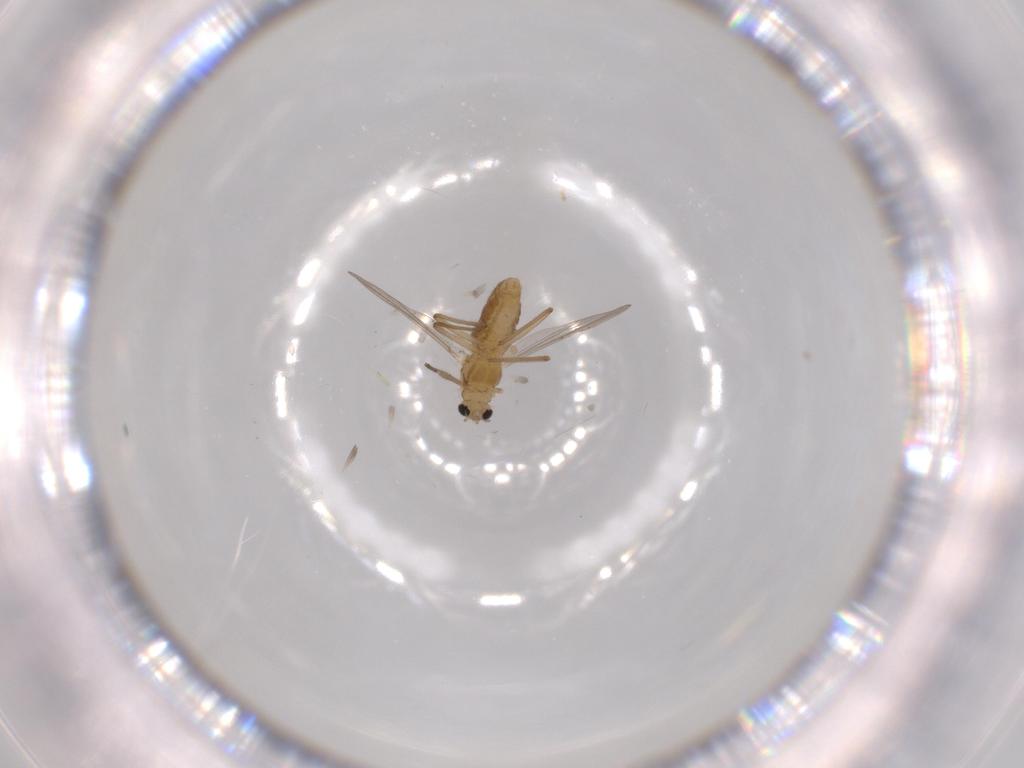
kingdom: Animalia
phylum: Arthropoda
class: Insecta
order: Diptera
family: Chironomidae
